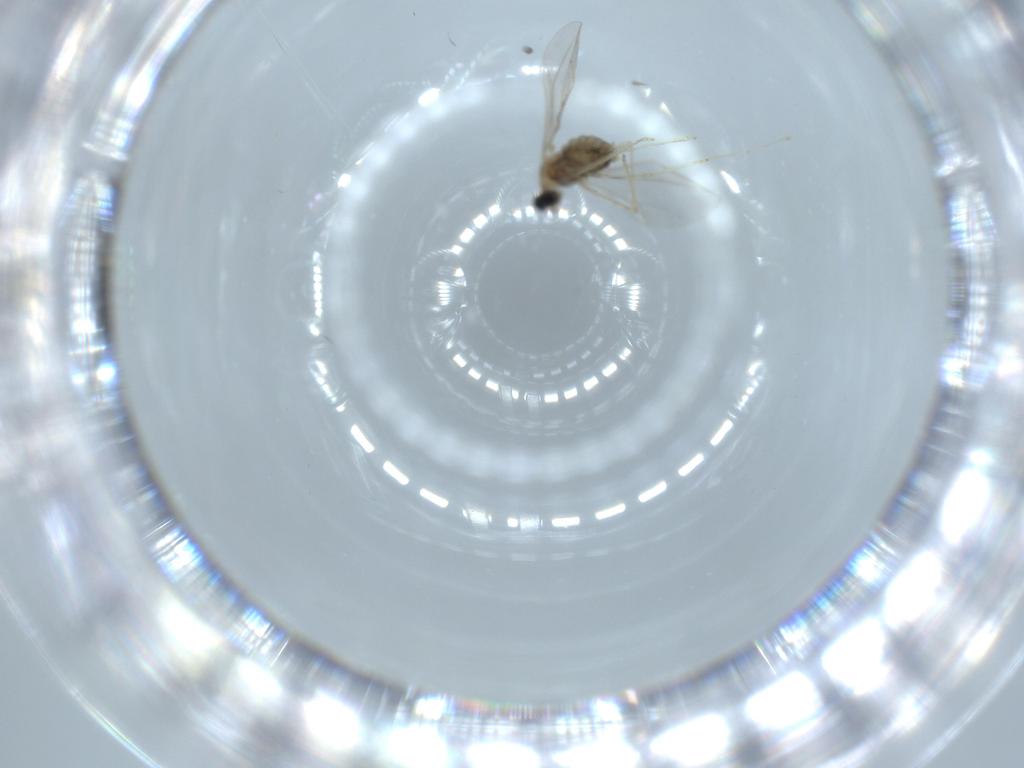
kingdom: Animalia
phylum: Arthropoda
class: Insecta
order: Diptera
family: Cecidomyiidae
